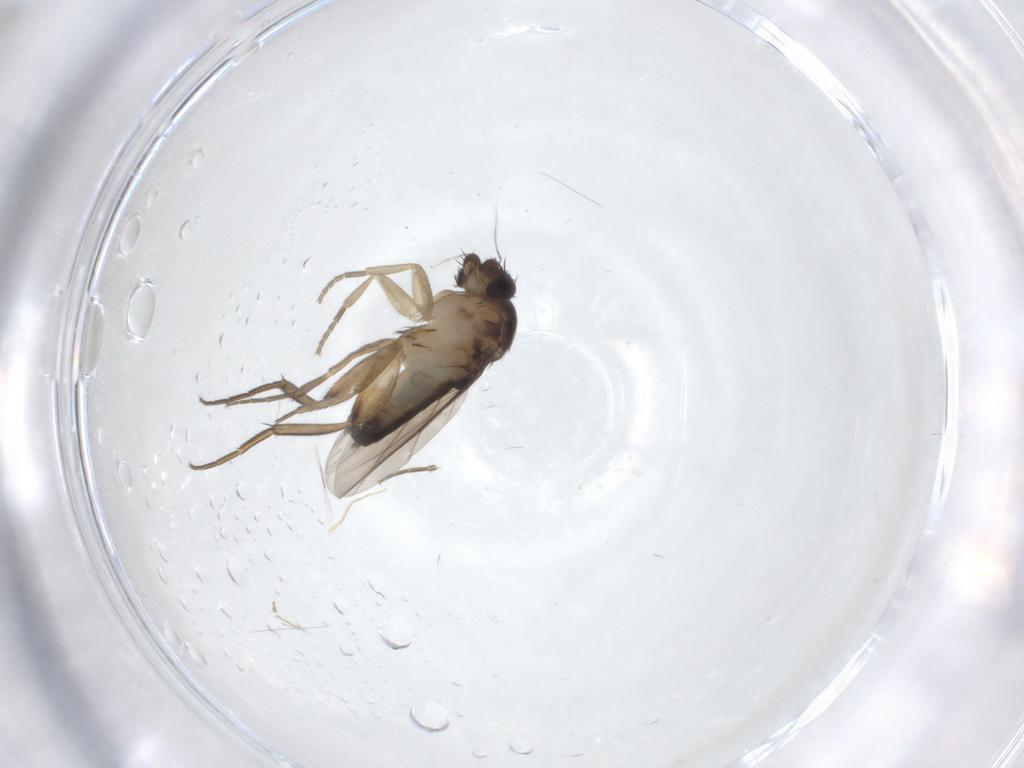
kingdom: Animalia
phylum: Arthropoda
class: Insecta
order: Diptera
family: Phoridae
